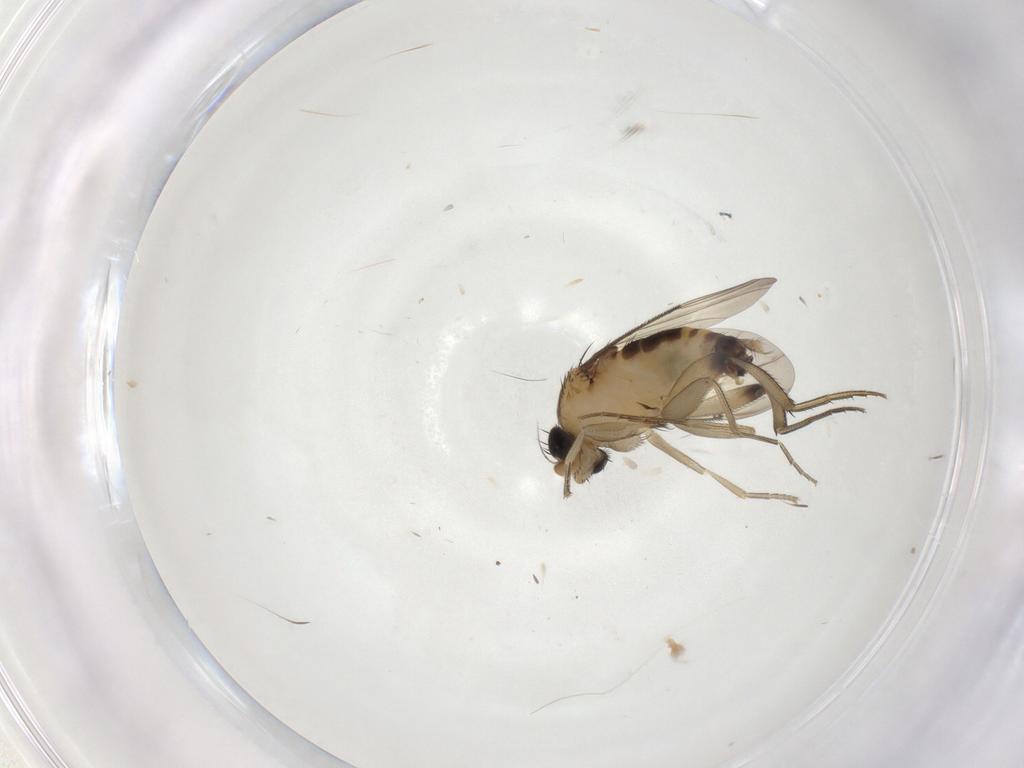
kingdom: Animalia
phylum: Arthropoda
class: Insecta
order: Diptera
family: Phoridae
